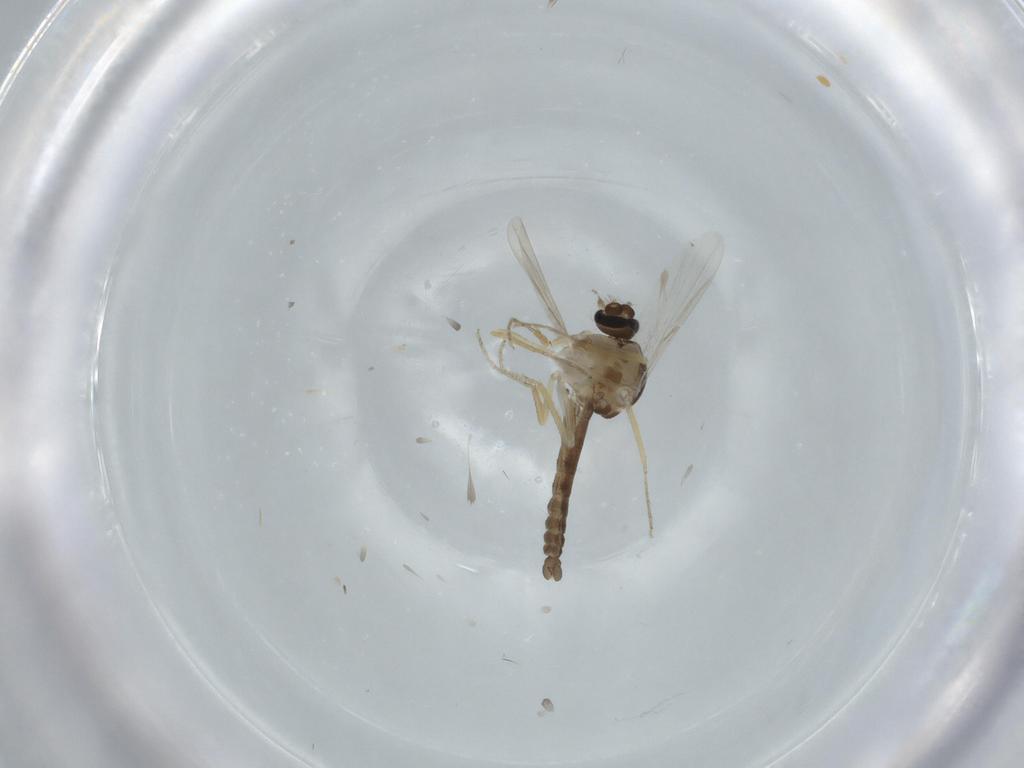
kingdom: Animalia
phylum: Arthropoda
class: Insecta
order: Diptera
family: Ceratopogonidae
